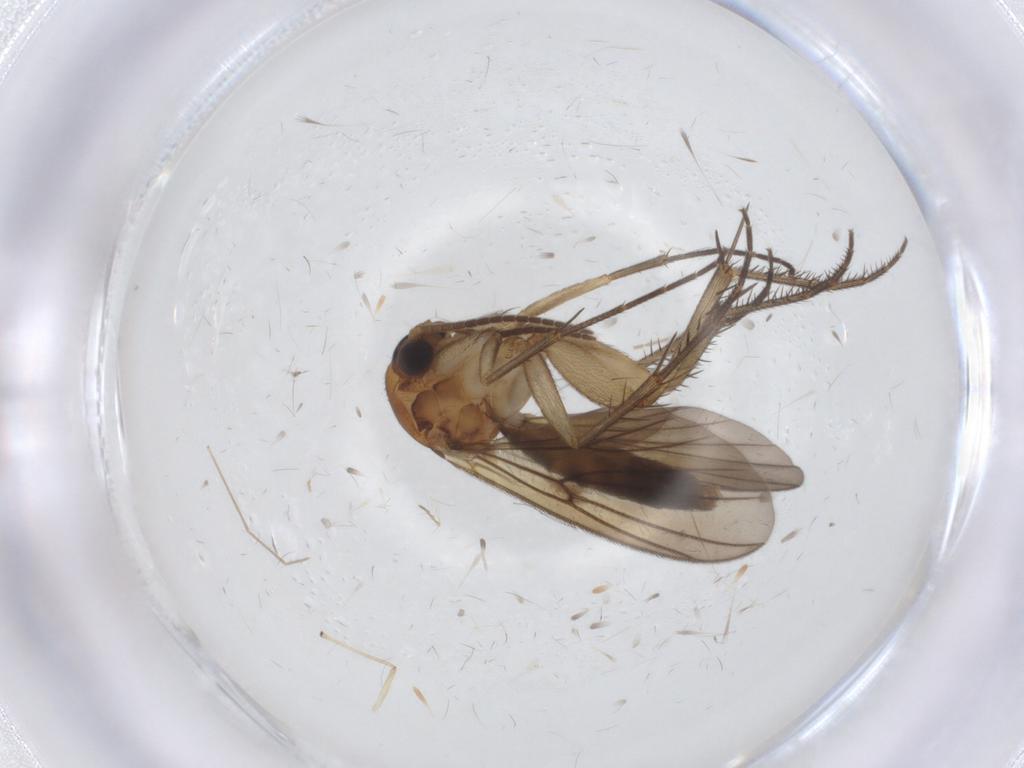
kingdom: Animalia
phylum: Arthropoda
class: Insecta
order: Diptera
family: Mycetophilidae
